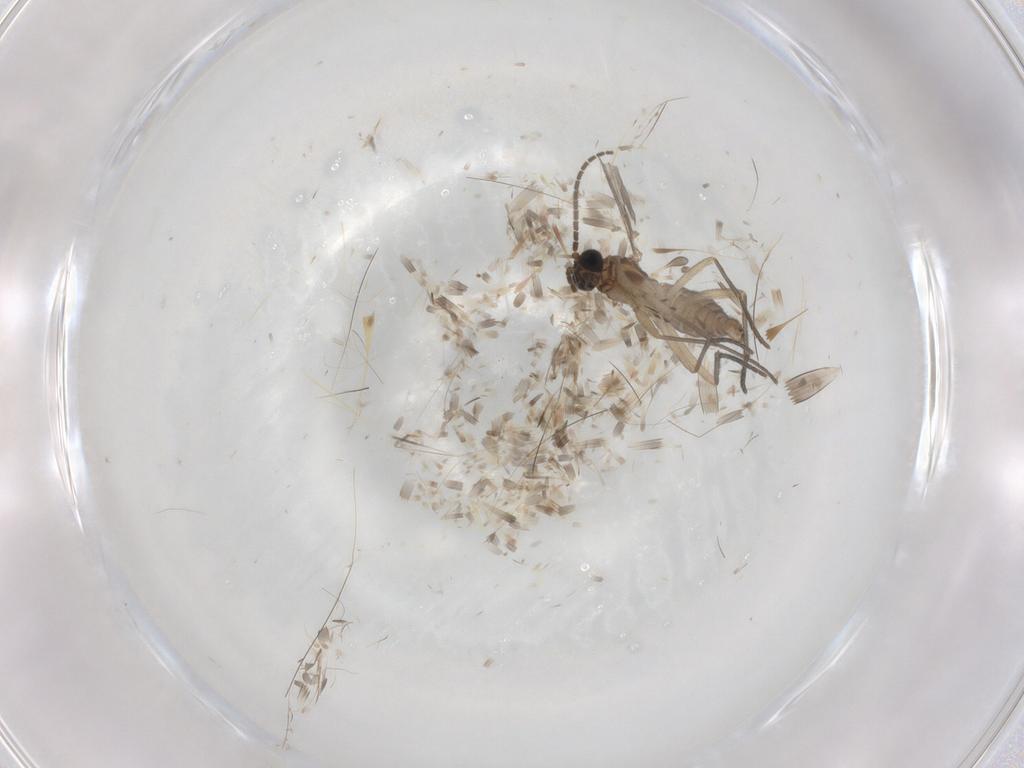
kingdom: Animalia
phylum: Arthropoda
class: Insecta
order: Diptera
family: Sciaridae
